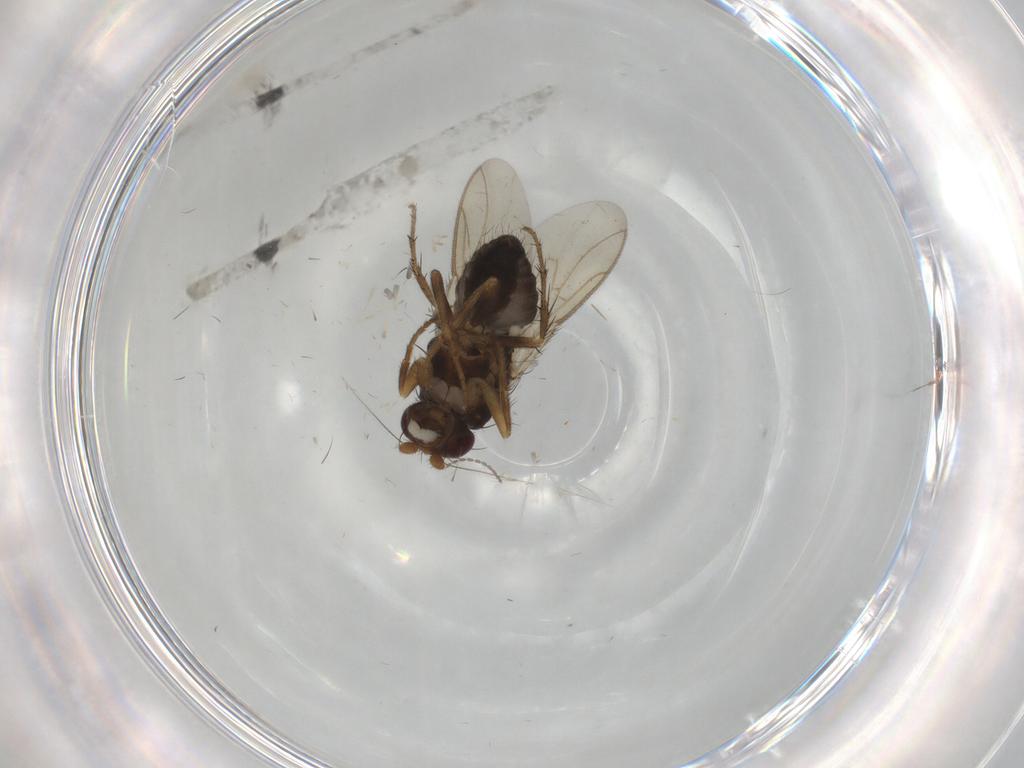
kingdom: Animalia
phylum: Arthropoda
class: Insecta
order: Diptera
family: Sphaeroceridae
